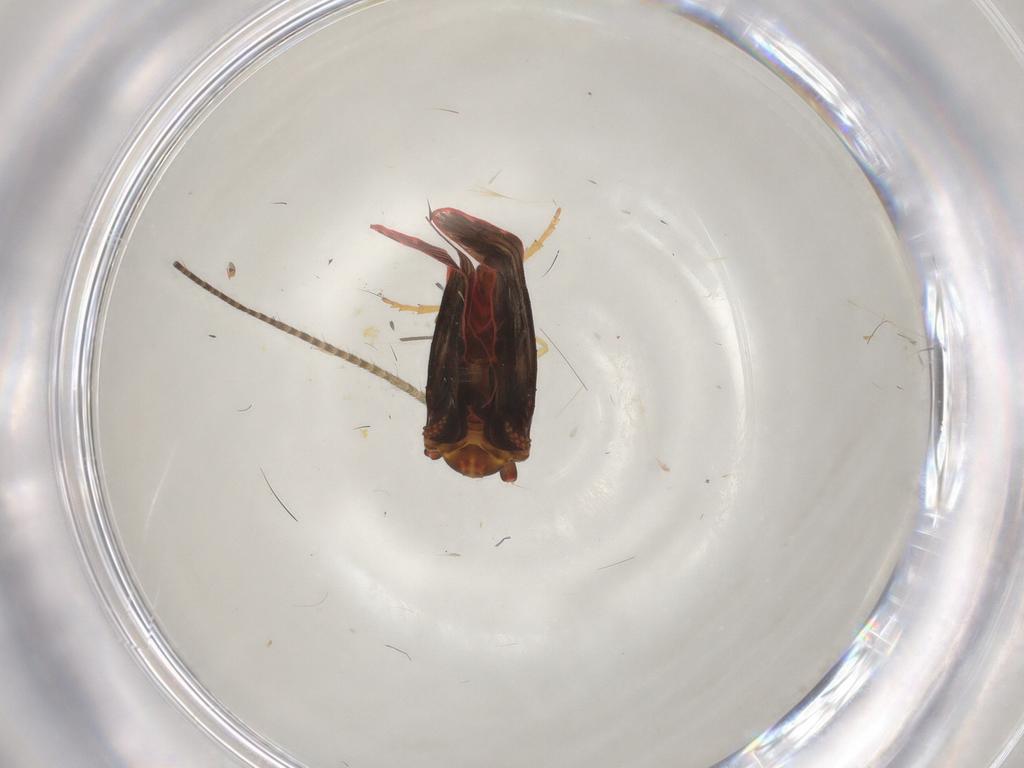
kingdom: Animalia
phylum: Arthropoda
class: Insecta
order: Hemiptera
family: Derbidae
